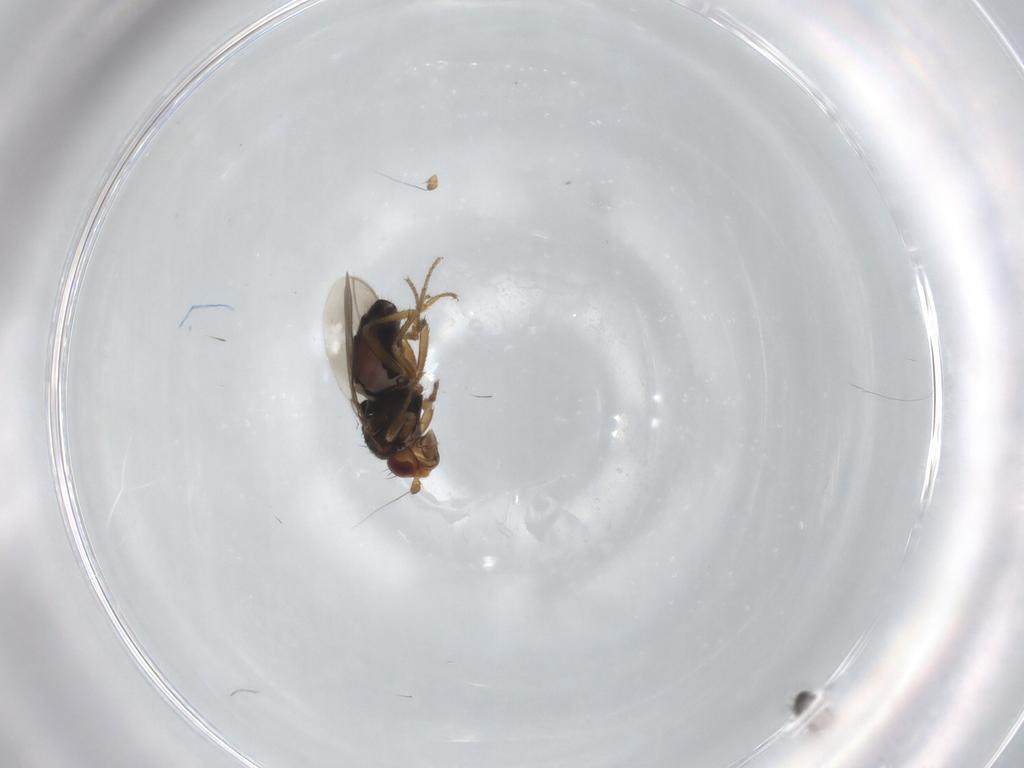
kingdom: Animalia
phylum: Arthropoda
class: Insecta
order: Diptera
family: Sphaeroceridae
